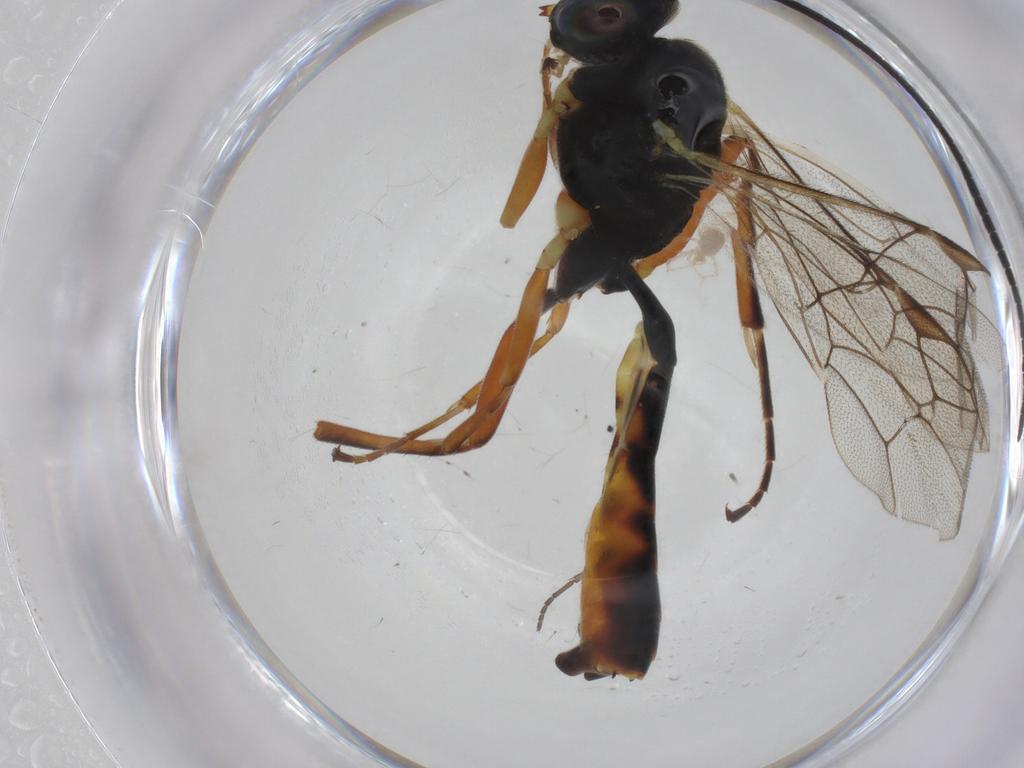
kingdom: Animalia
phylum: Arthropoda
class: Insecta
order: Hymenoptera
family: Ichneumonidae
